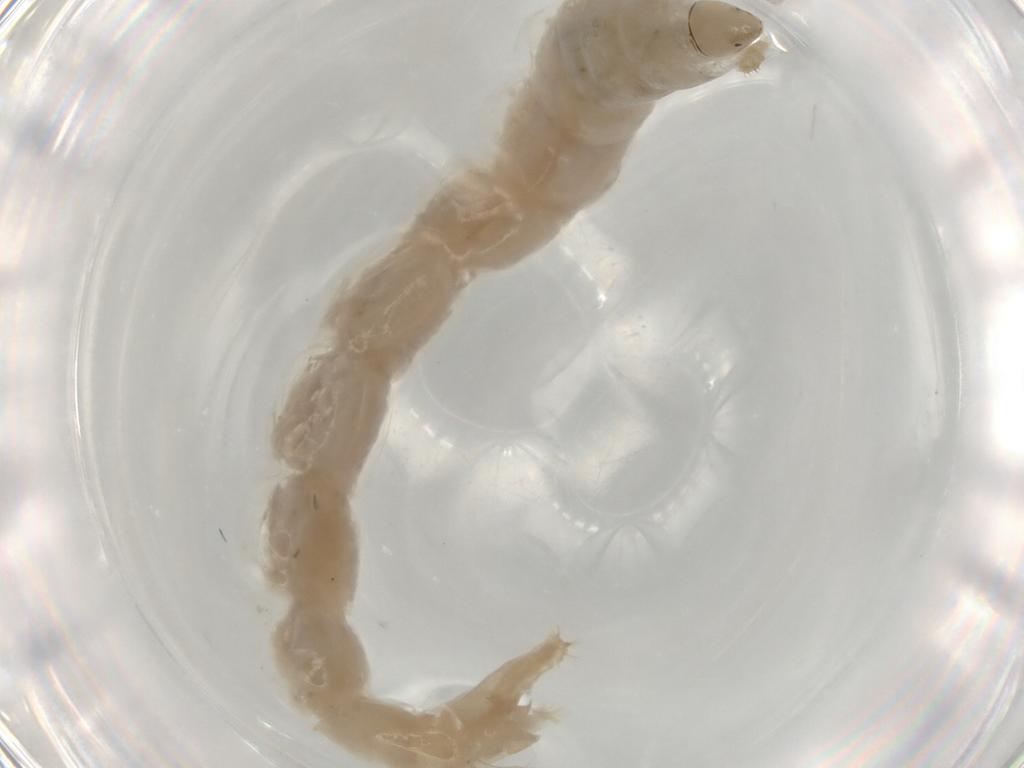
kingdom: Animalia
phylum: Arthropoda
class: Insecta
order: Diptera
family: Chironomidae
